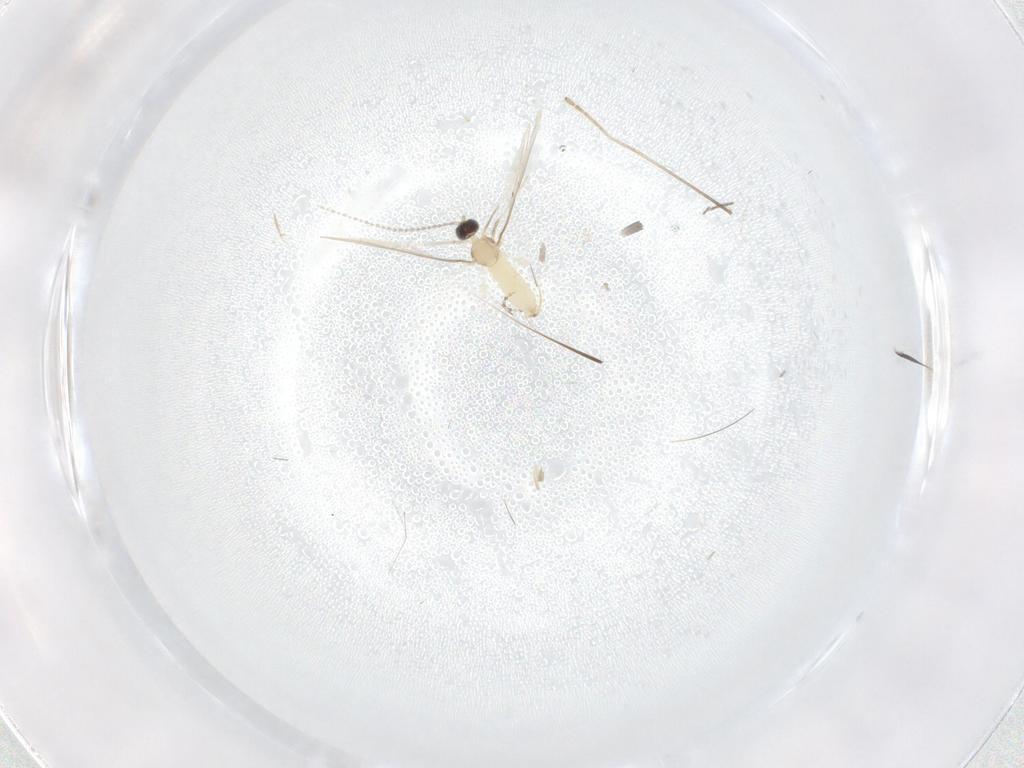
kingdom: Animalia
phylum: Arthropoda
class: Insecta
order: Diptera
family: Limoniidae
